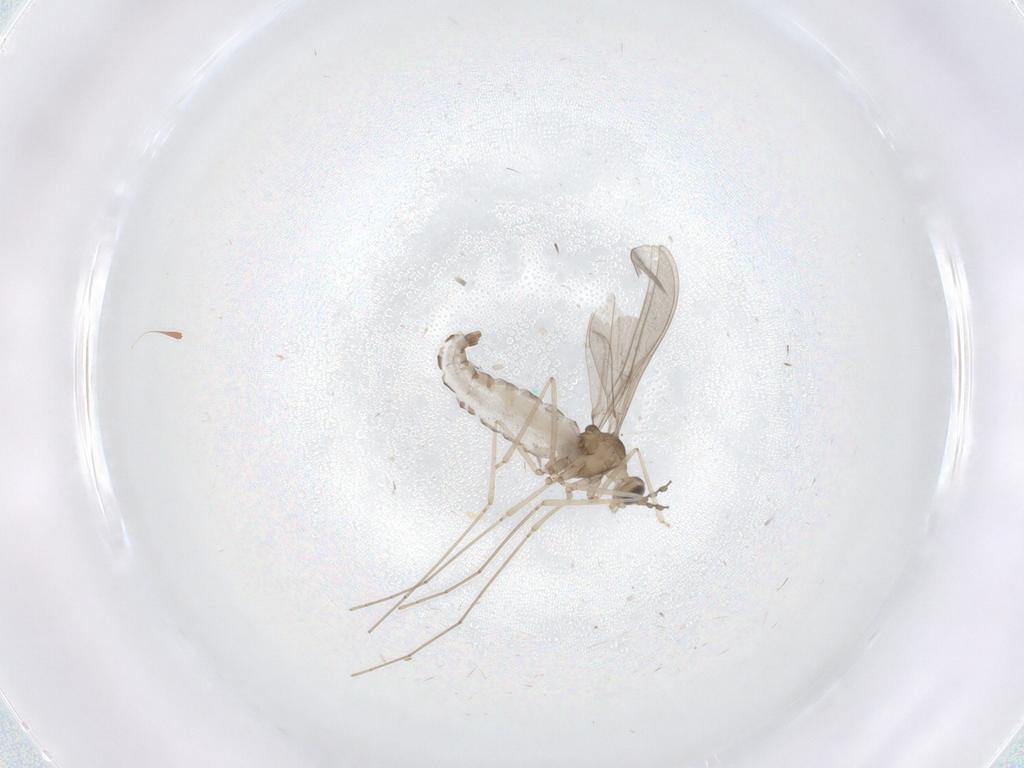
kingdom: Animalia
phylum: Arthropoda
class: Insecta
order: Diptera
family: Cecidomyiidae
